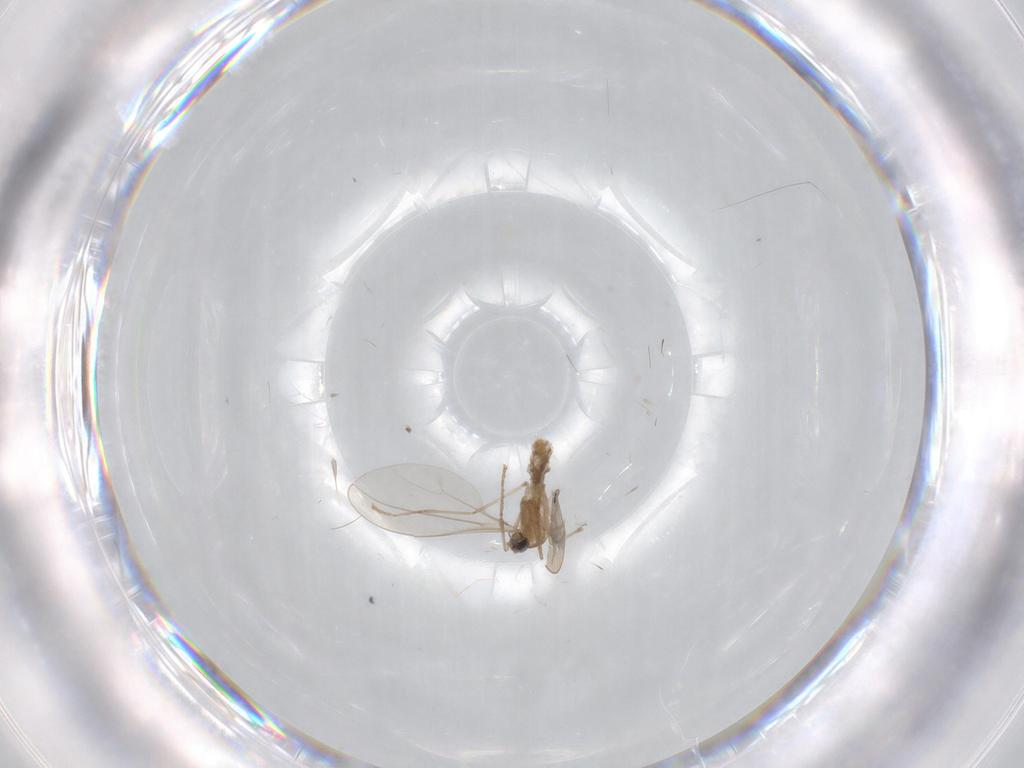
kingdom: Animalia
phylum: Arthropoda
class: Insecta
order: Diptera
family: Cecidomyiidae
